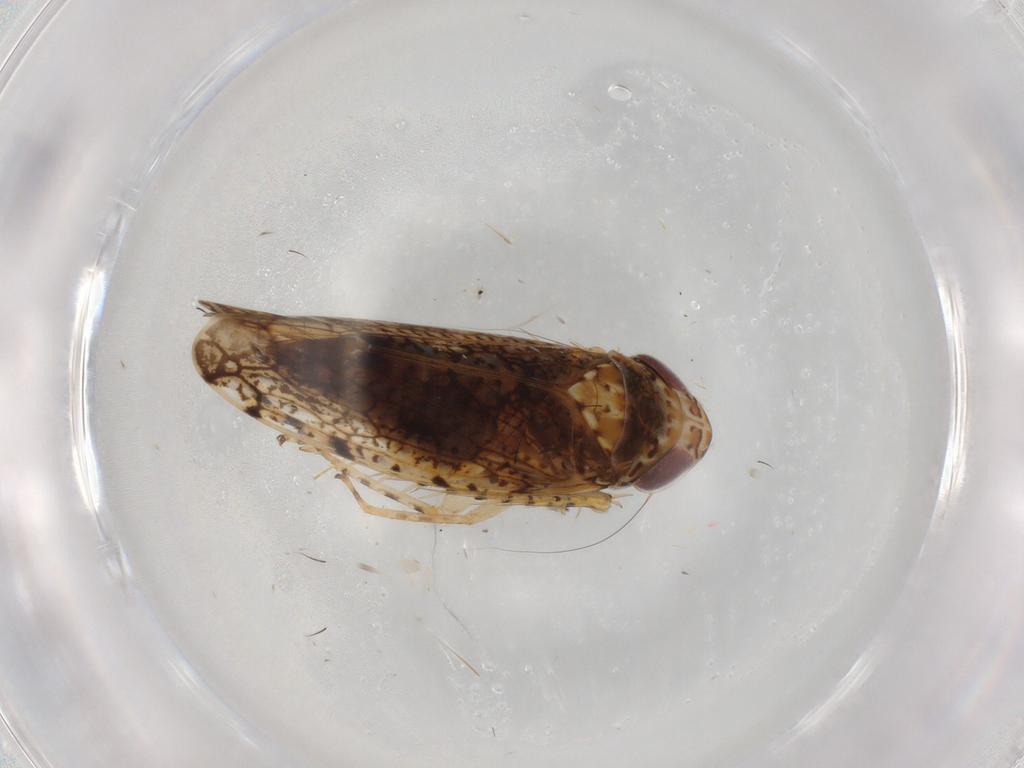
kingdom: Animalia
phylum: Arthropoda
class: Insecta
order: Hemiptera
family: Cicadellidae
